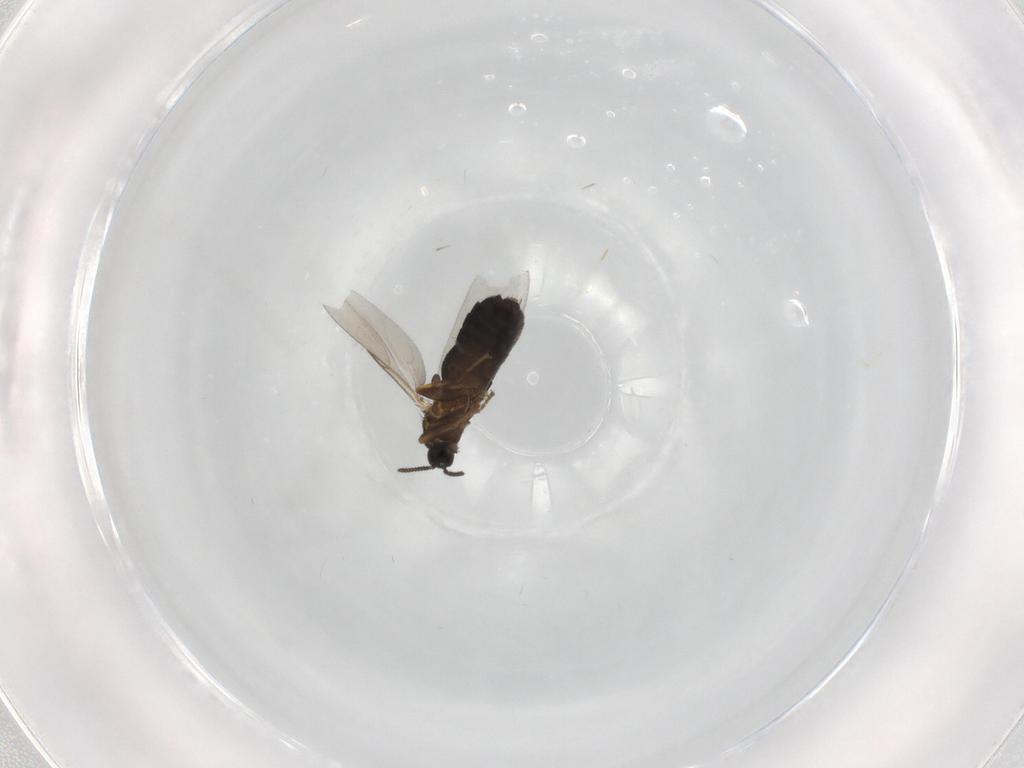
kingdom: Animalia
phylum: Arthropoda
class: Insecta
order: Diptera
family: Scatopsidae
